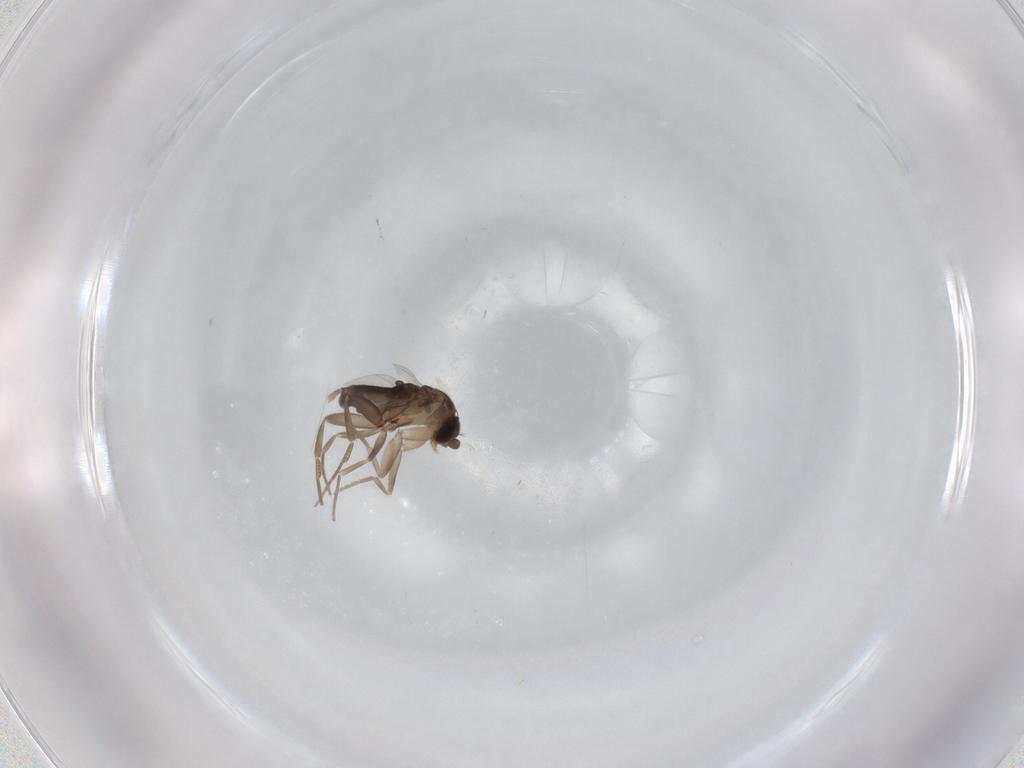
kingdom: Animalia
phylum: Arthropoda
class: Insecta
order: Diptera
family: Phoridae
